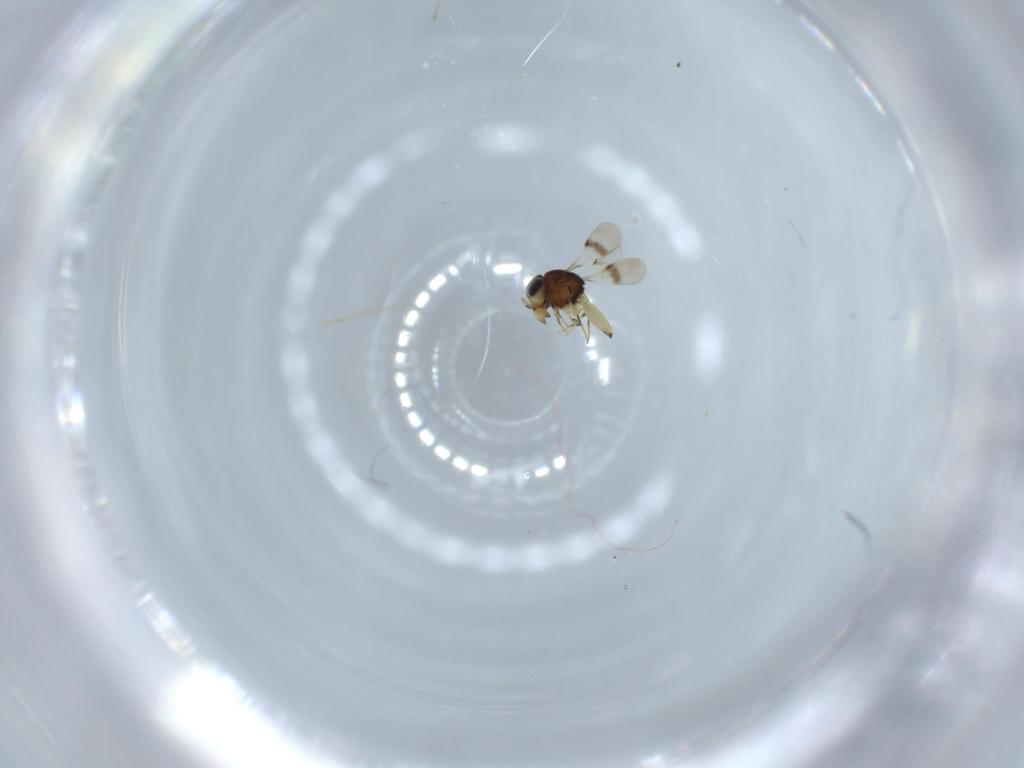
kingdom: Animalia
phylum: Arthropoda
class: Insecta
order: Hymenoptera
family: Scelionidae
